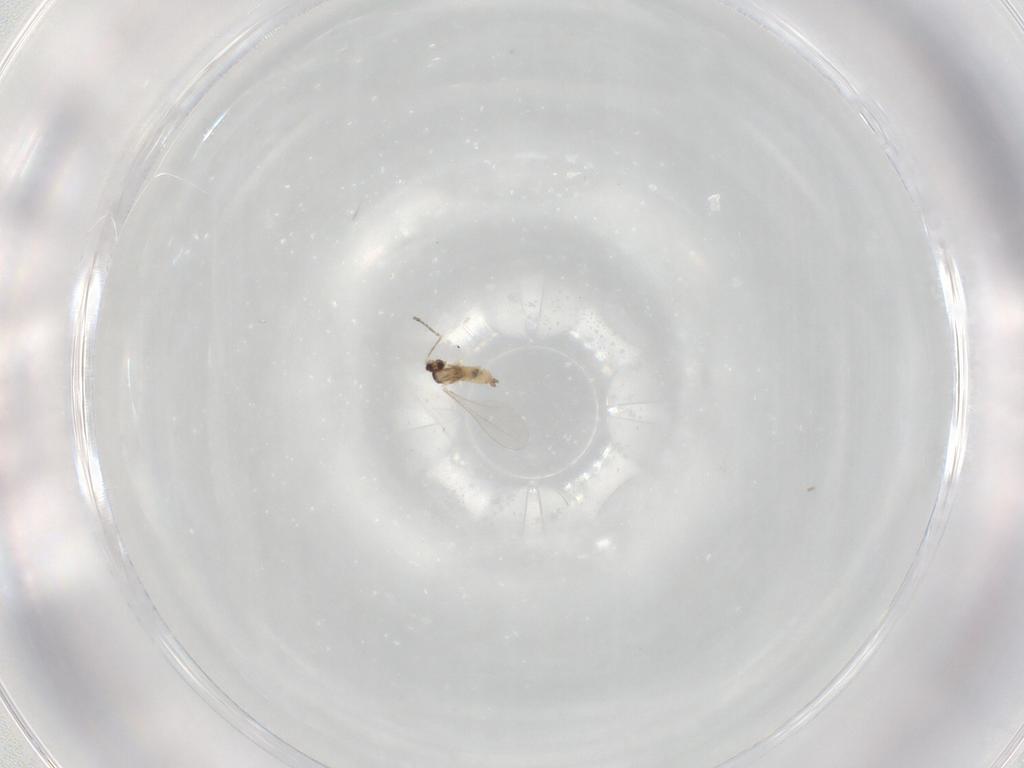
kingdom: Animalia
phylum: Arthropoda
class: Insecta
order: Diptera
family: Cecidomyiidae
